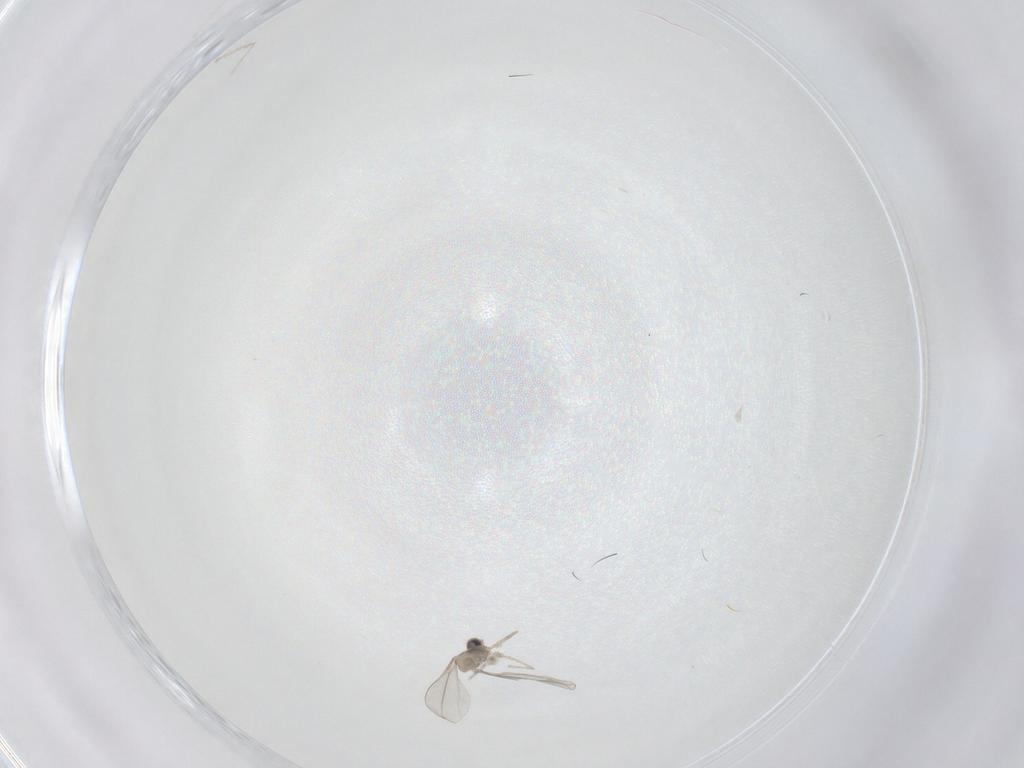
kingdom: Animalia
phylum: Arthropoda
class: Insecta
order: Diptera
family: Cecidomyiidae
